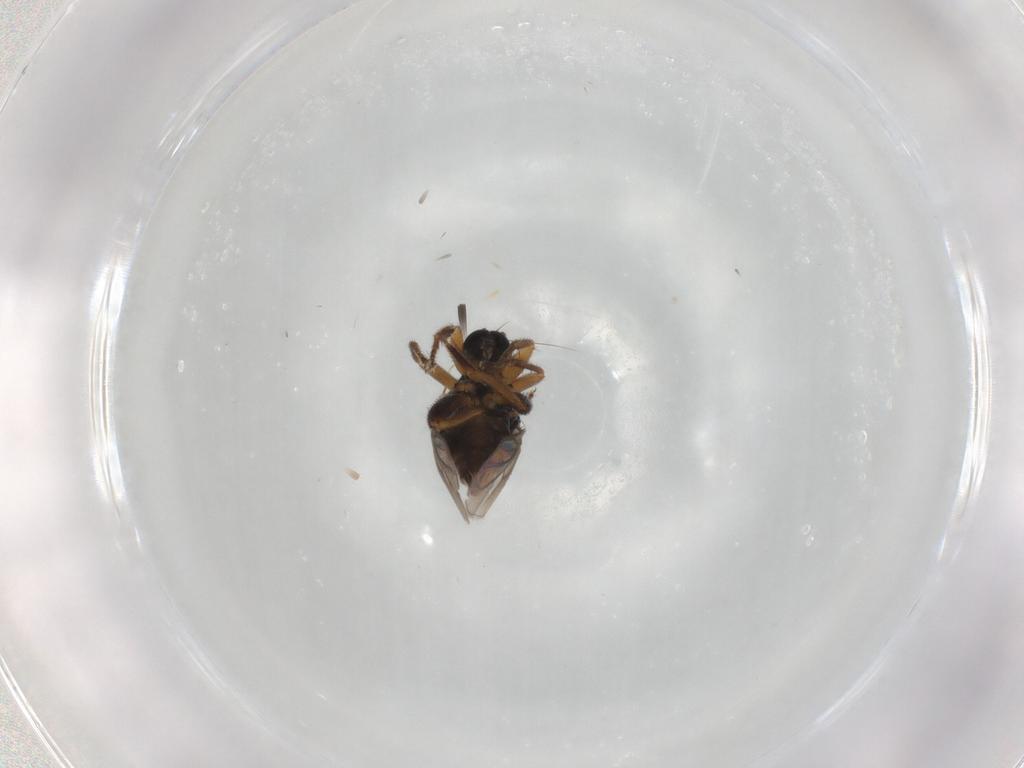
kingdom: Animalia
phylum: Arthropoda
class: Insecta
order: Diptera
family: Hybotidae
